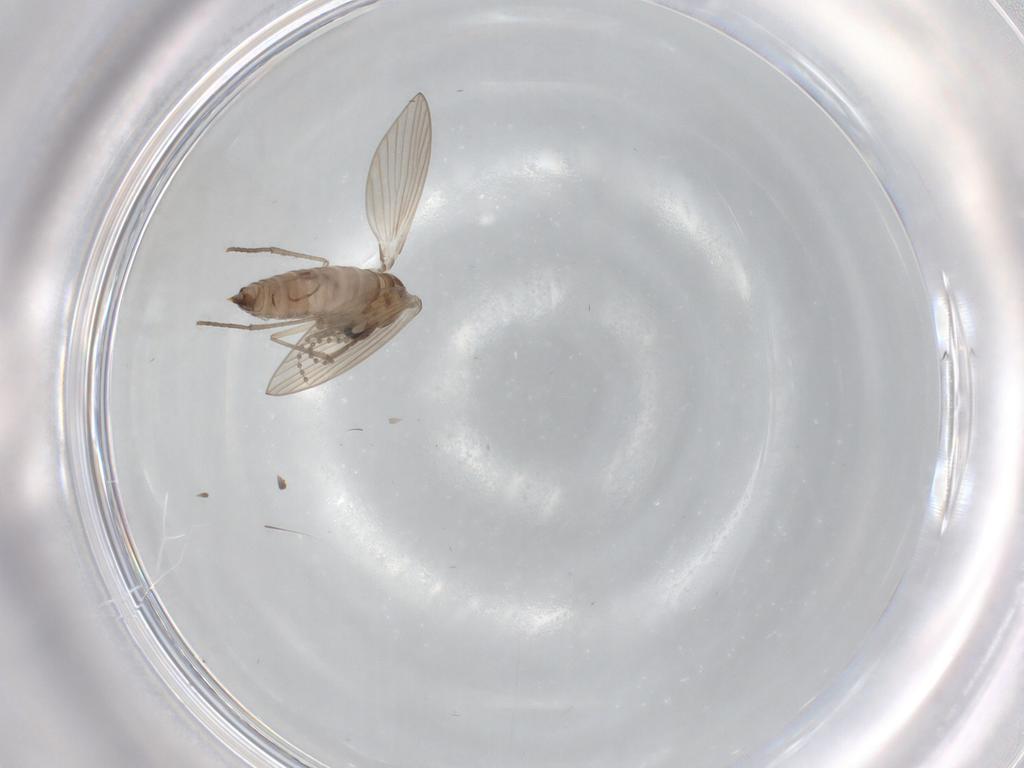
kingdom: Animalia
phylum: Arthropoda
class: Insecta
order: Diptera
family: Psychodidae
